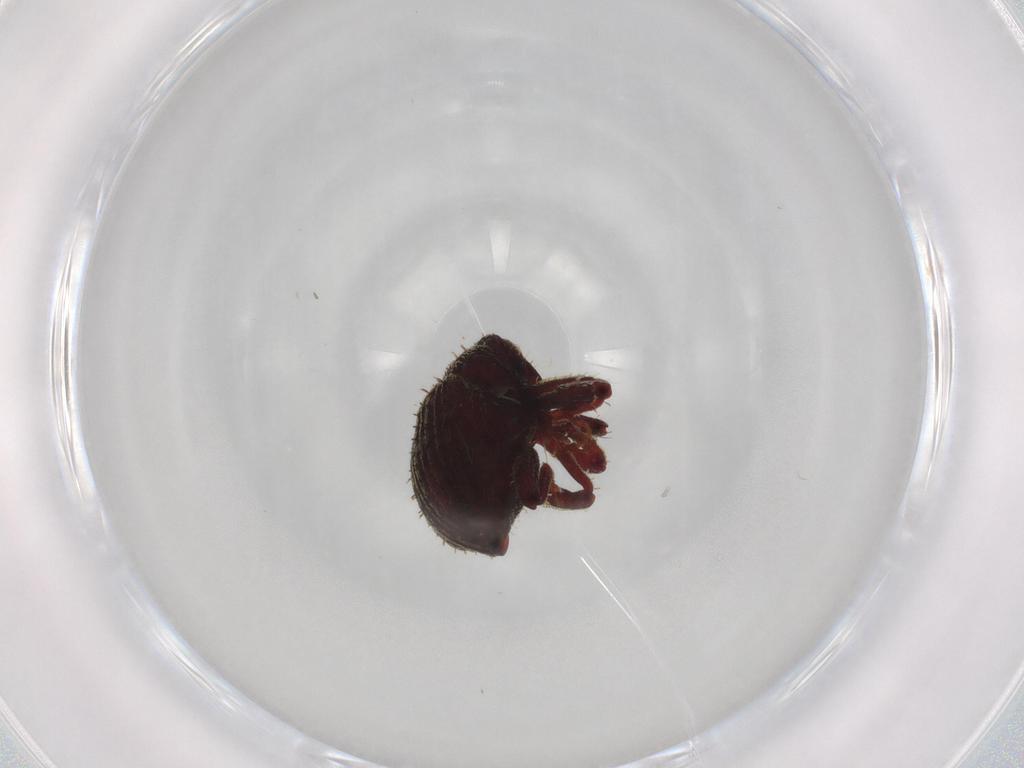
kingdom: Animalia
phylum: Arthropoda
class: Insecta
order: Coleoptera
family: Curculionidae
